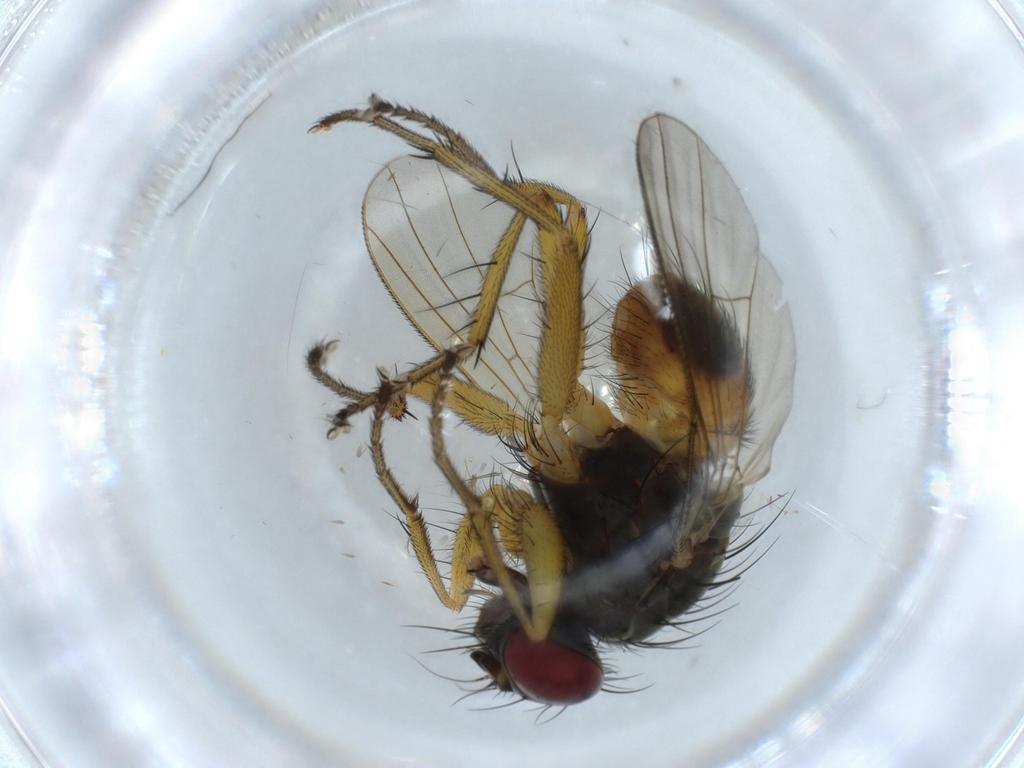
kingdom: Animalia
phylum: Arthropoda
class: Insecta
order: Diptera
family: Muscidae
